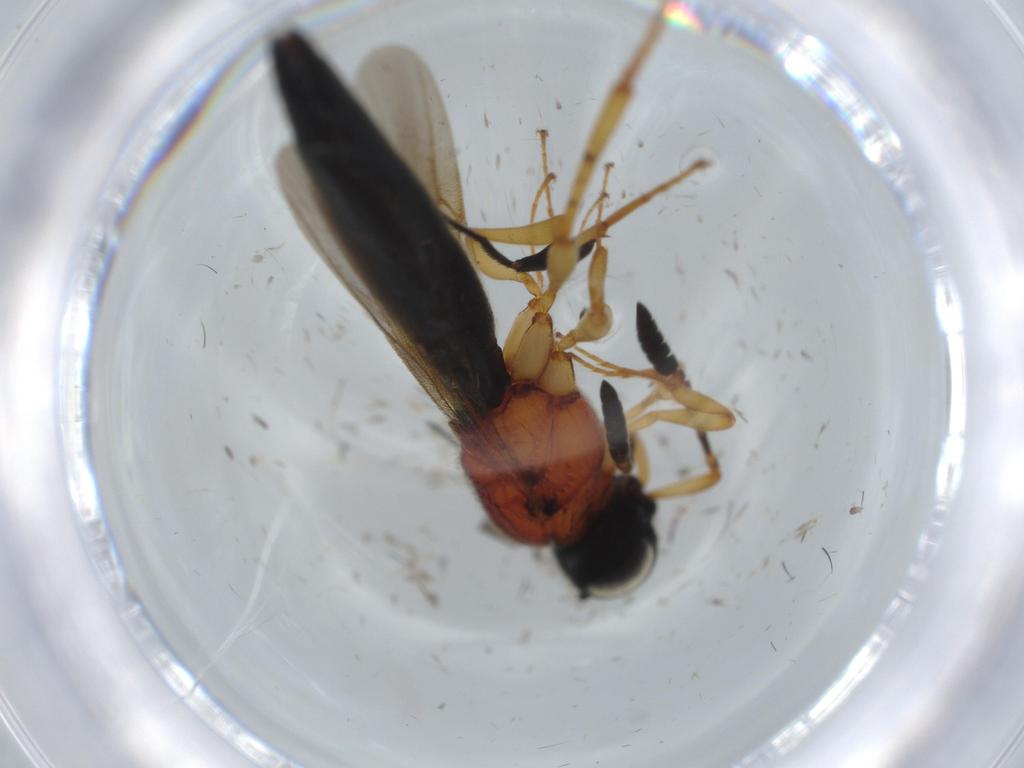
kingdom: Animalia
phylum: Arthropoda
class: Insecta
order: Hymenoptera
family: Scelionidae
